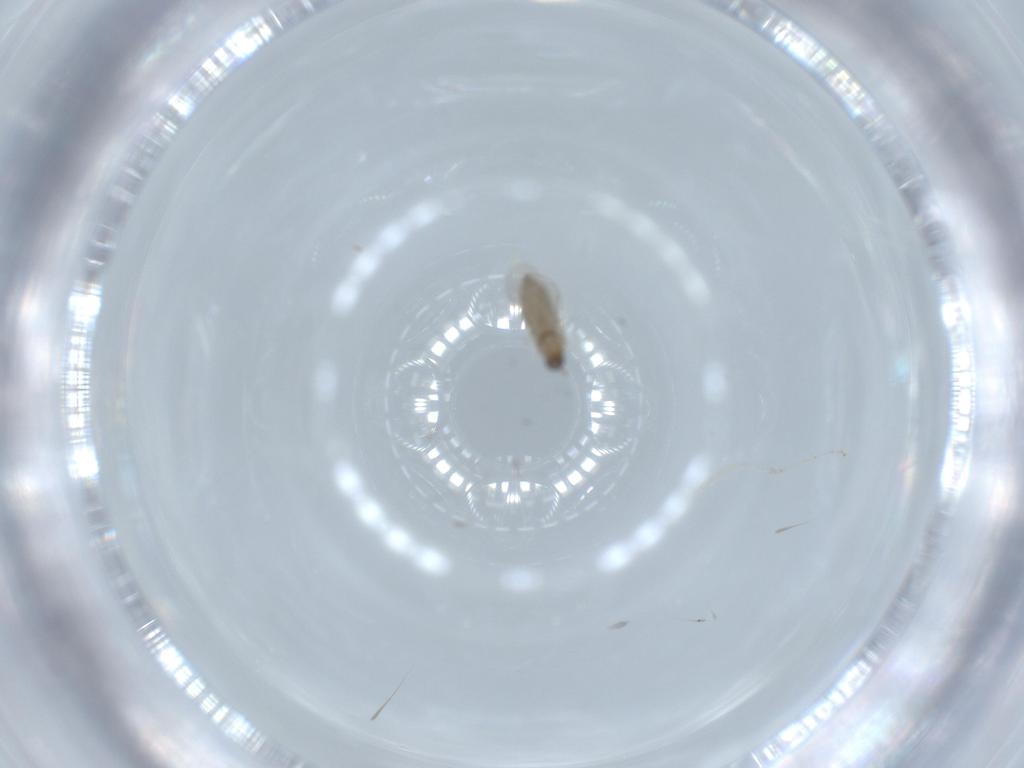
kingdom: Animalia
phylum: Arthropoda
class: Insecta
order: Diptera
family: Cecidomyiidae
